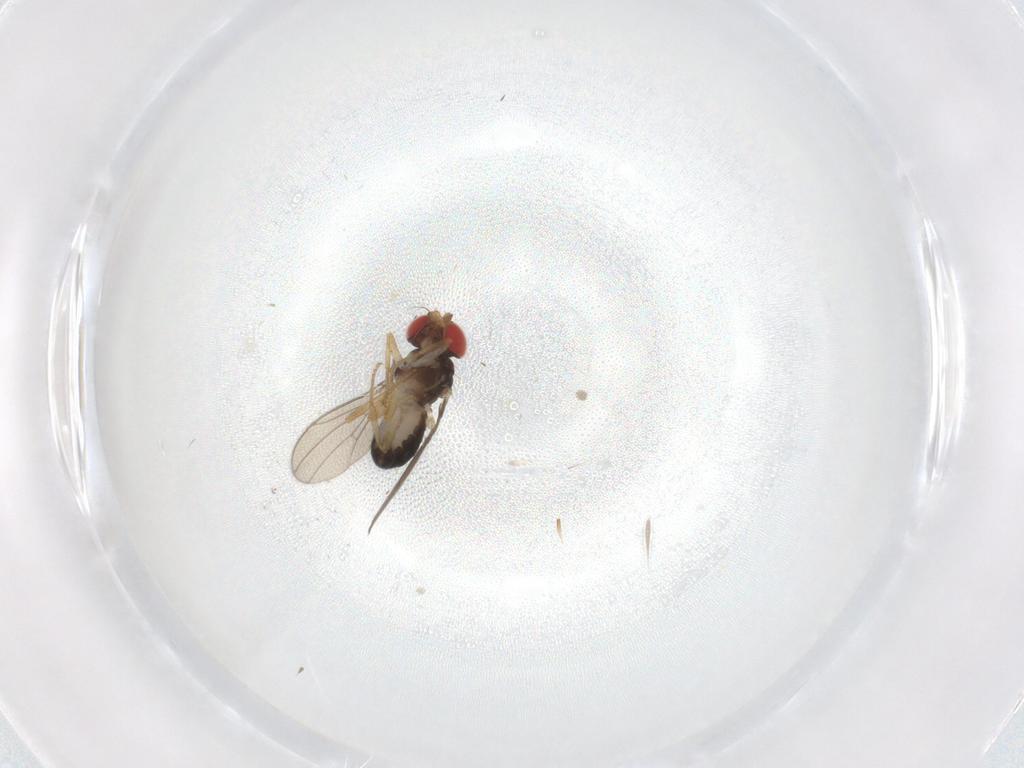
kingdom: Animalia
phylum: Arthropoda
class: Insecta
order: Diptera
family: Drosophilidae
